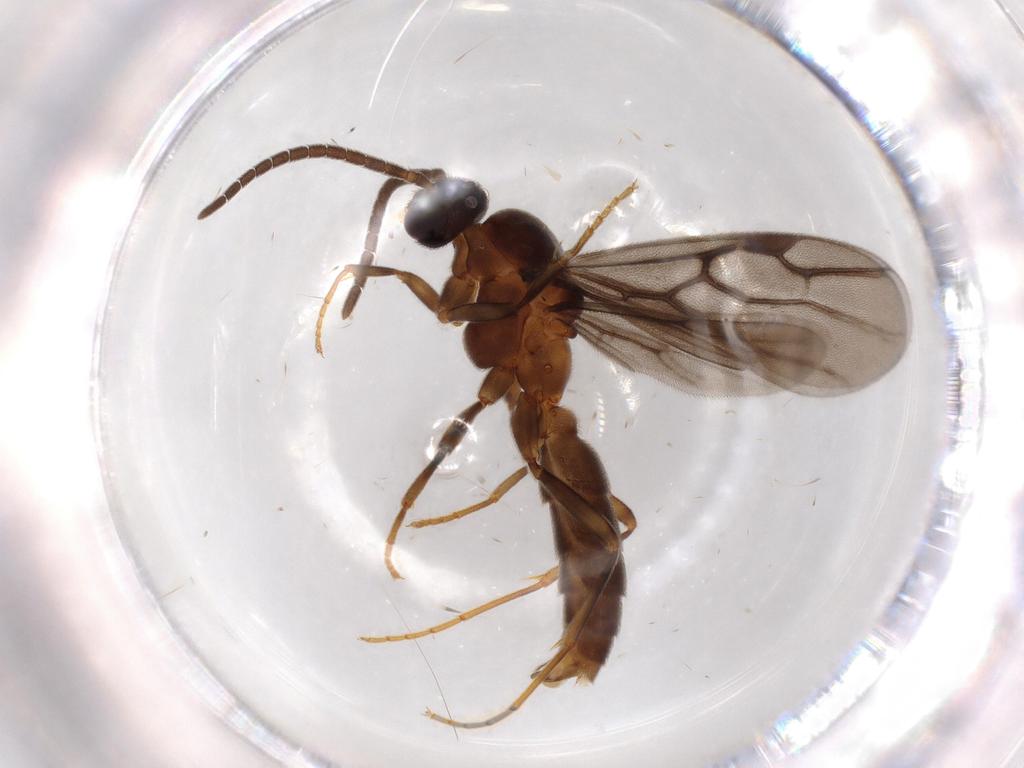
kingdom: Animalia
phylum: Arthropoda
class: Insecta
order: Hymenoptera
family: Formicidae
